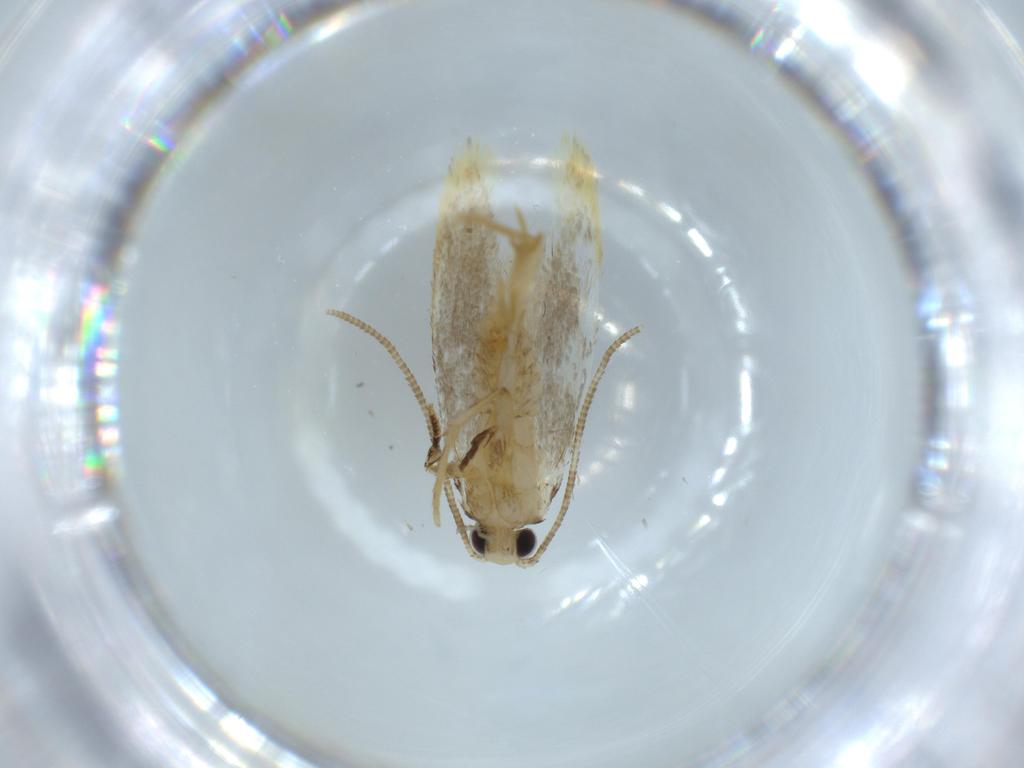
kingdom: Animalia
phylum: Arthropoda
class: Insecta
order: Lepidoptera
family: Tineidae
